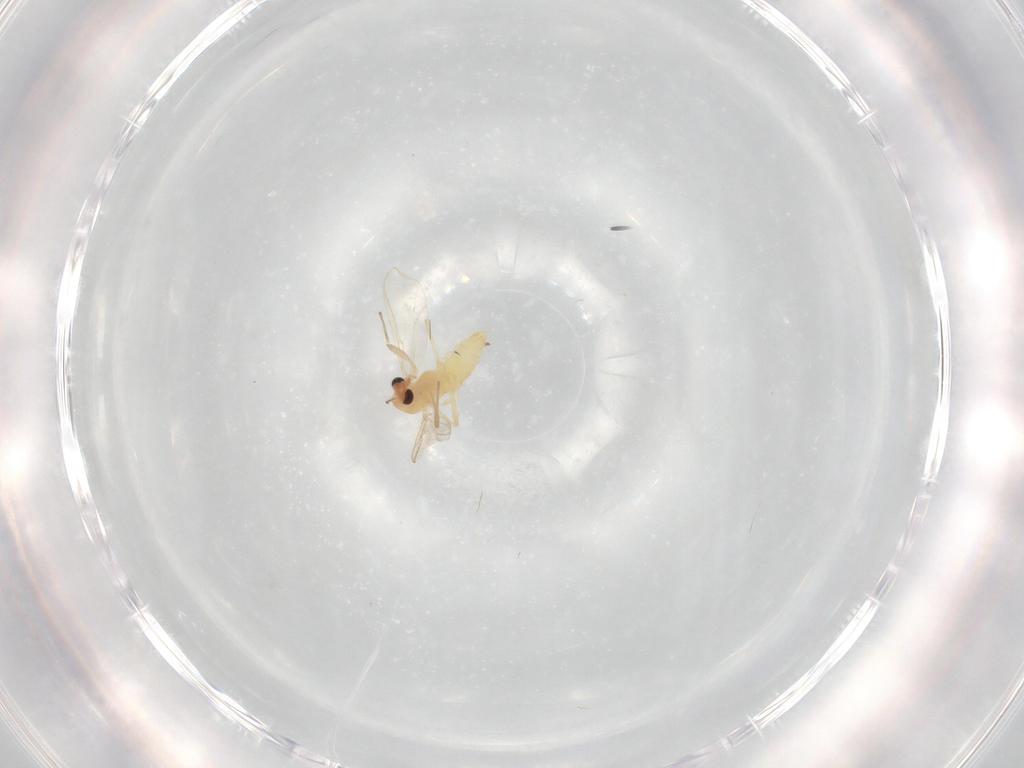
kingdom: Animalia
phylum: Arthropoda
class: Insecta
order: Diptera
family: Chironomidae
